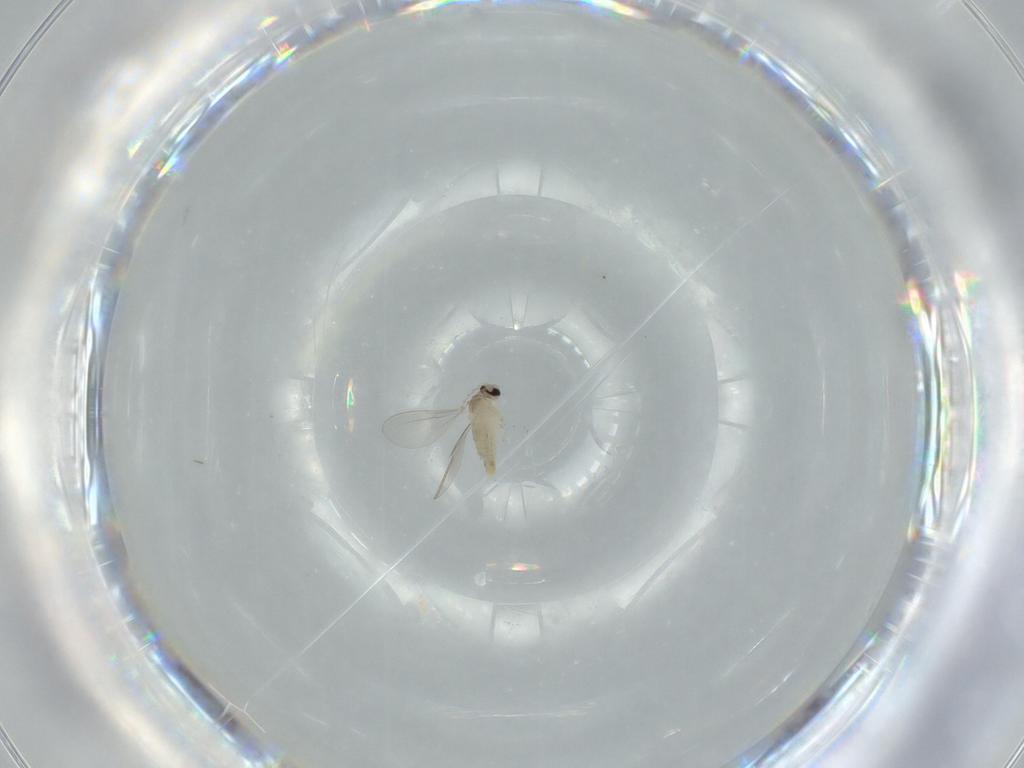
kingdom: Animalia
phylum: Arthropoda
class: Insecta
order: Diptera
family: Cecidomyiidae
